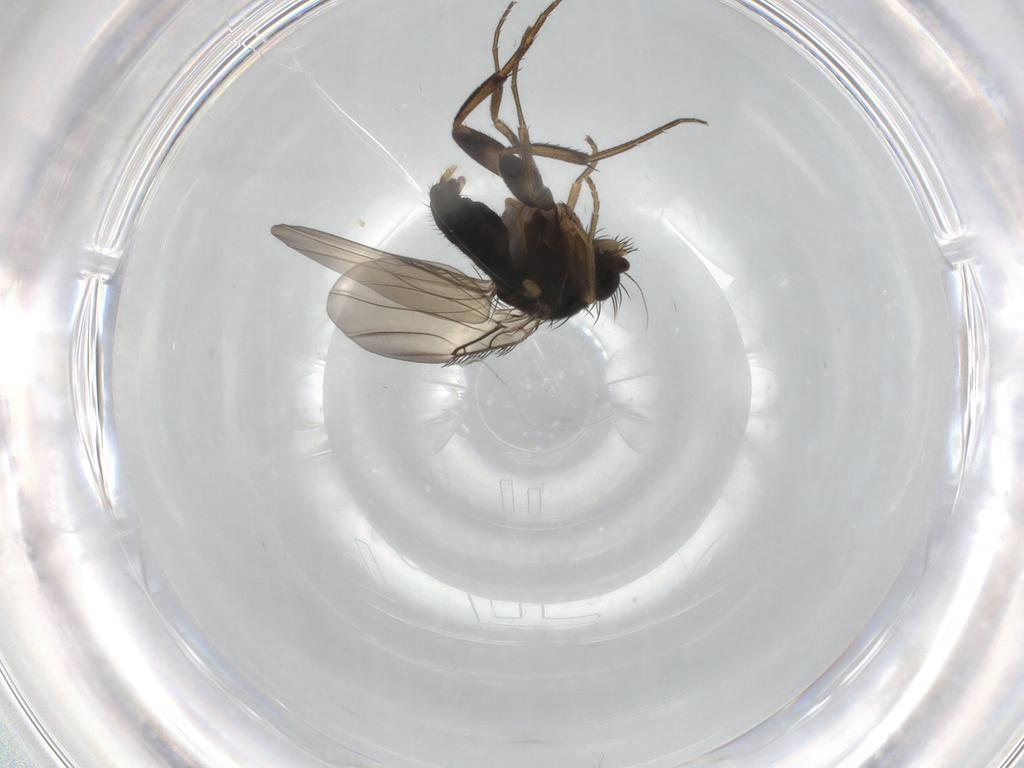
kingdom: Animalia
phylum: Arthropoda
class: Insecta
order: Diptera
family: Phoridae
